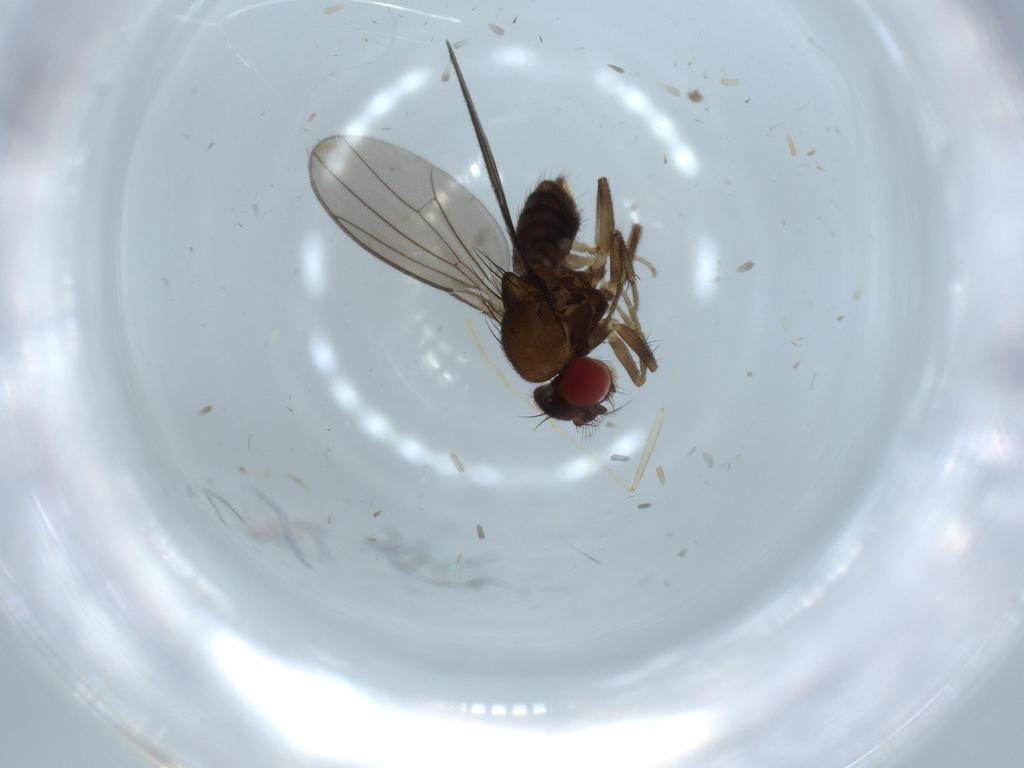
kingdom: Animalia
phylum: Arthropoda
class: Insecta
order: Diptera
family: Drosophilidae
